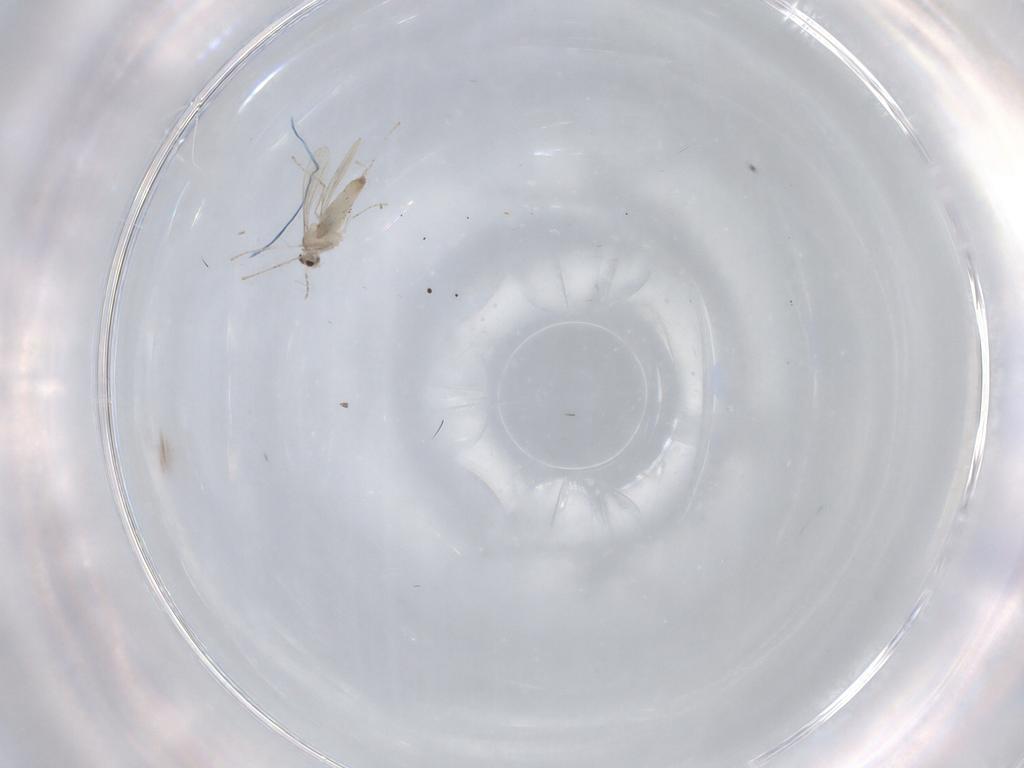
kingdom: Animalia
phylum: Arthropoda
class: Insecta
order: Diptera
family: Cecidomyiidae
